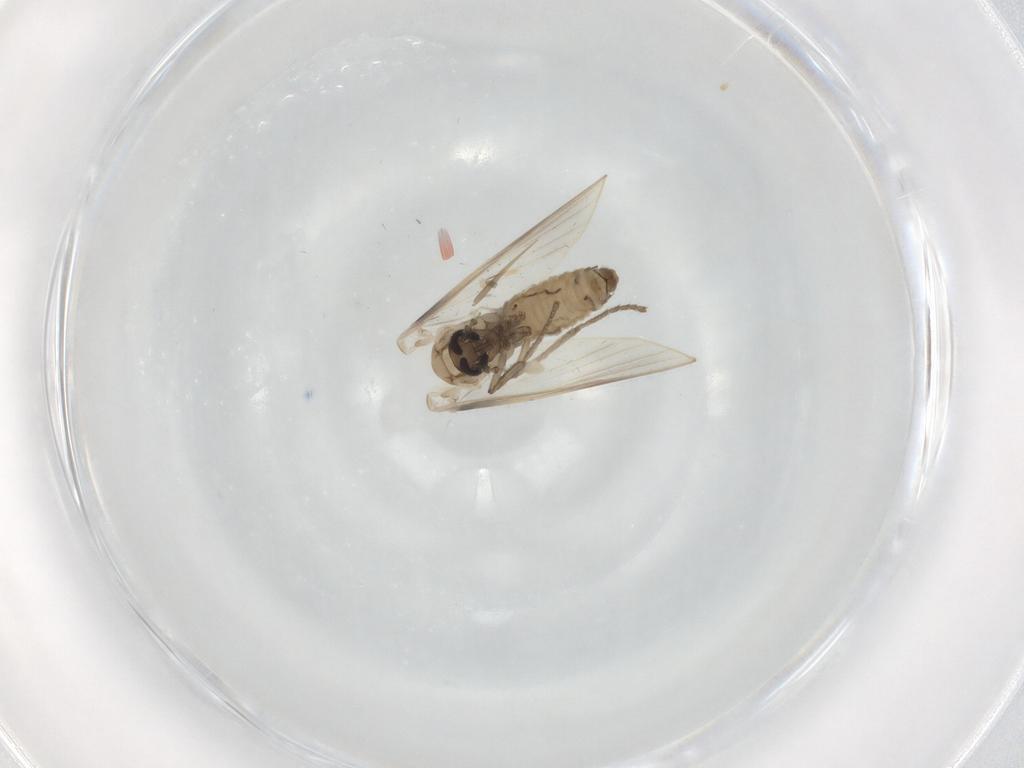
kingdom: Animalia
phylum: Arthropoda
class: Insecta
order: Diptera
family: Psychodidae
